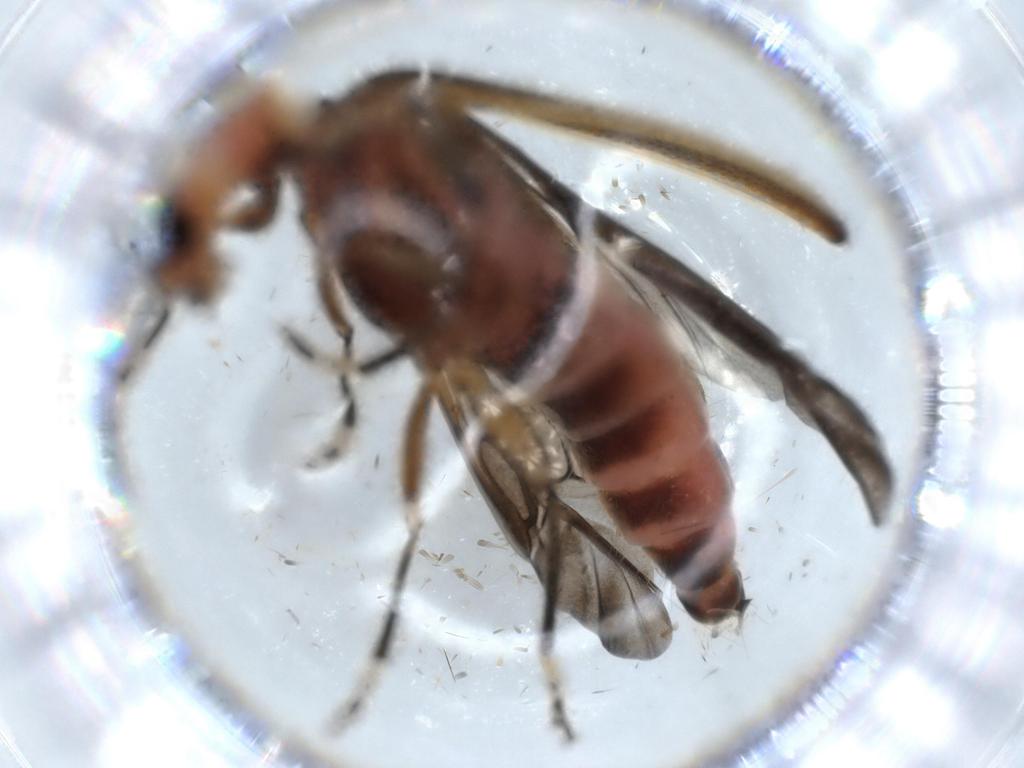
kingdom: Animalia
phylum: Arthropoda
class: Insecta
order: Coleoptera
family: Cleridae
